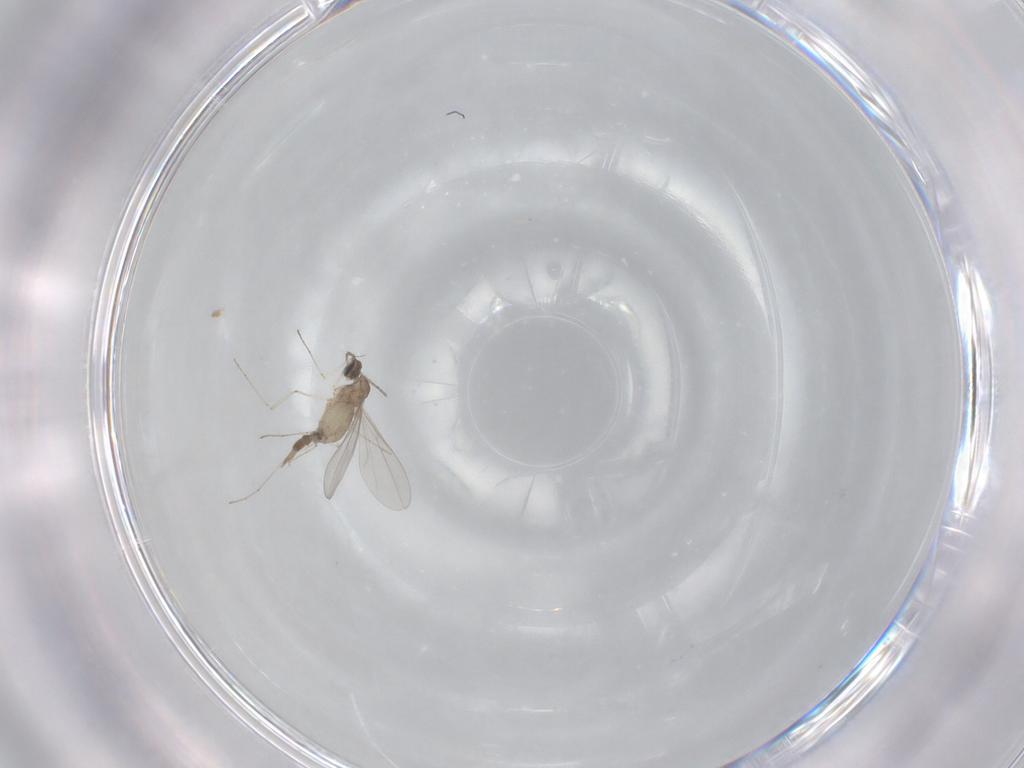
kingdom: Animalia
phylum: Arthropoda
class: Insecta
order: Diptera
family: Cecidomyiidae
